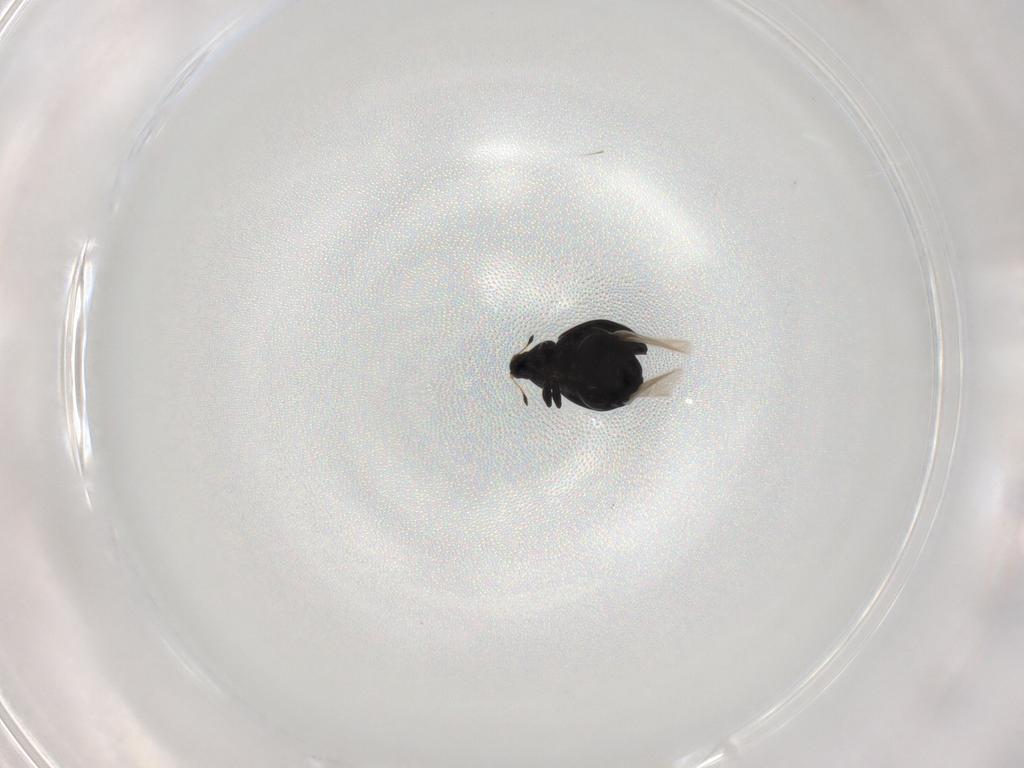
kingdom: Animalia
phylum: Arthropoda
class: Insecta
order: Coleoptera
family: Curculionidae
